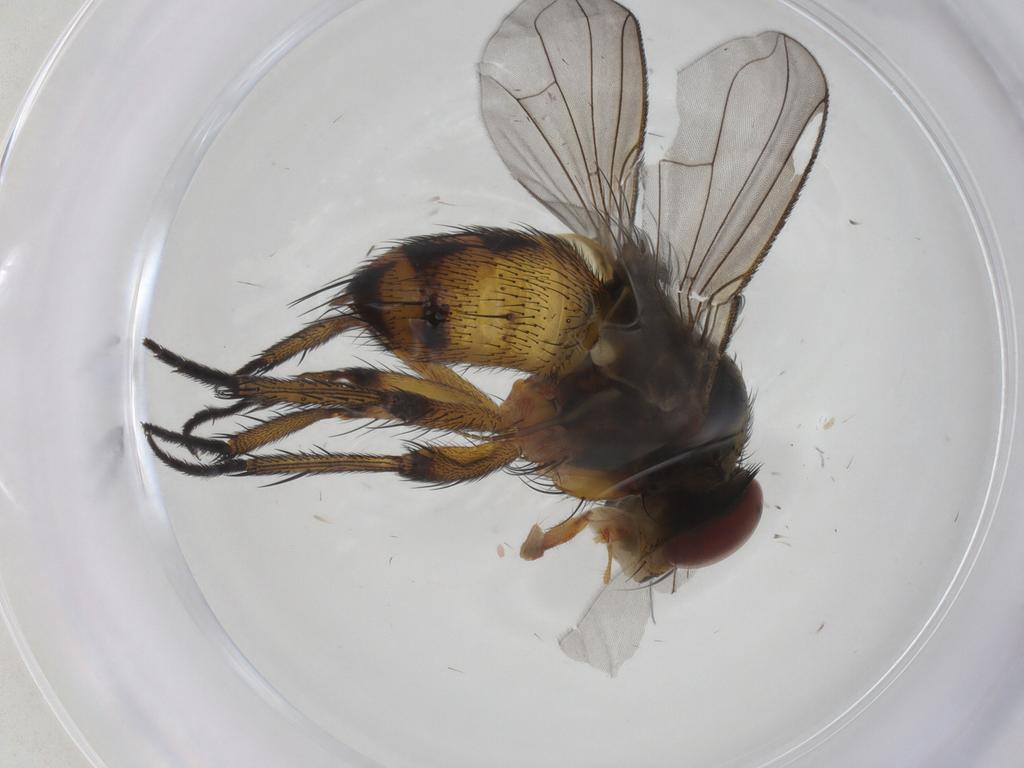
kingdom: Animalia
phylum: Arthropoda
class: Insecta
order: Diptera
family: Tachinidae
